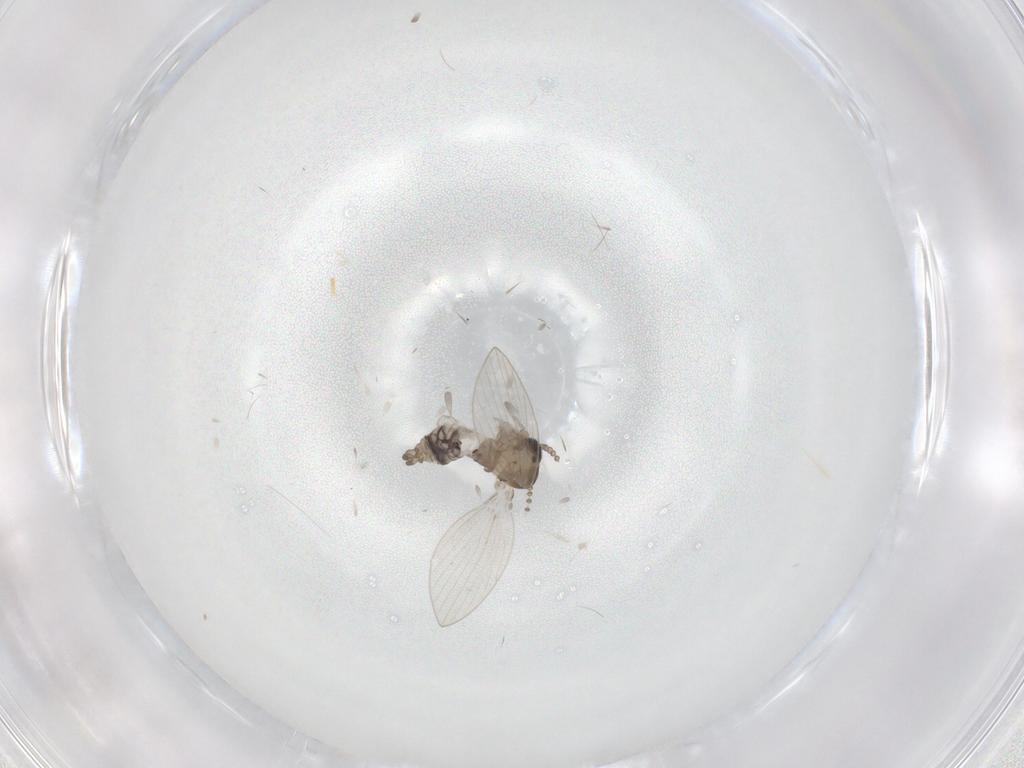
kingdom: Animalia
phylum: Arthropoda
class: Insecta
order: Diptera
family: Psychodidae
